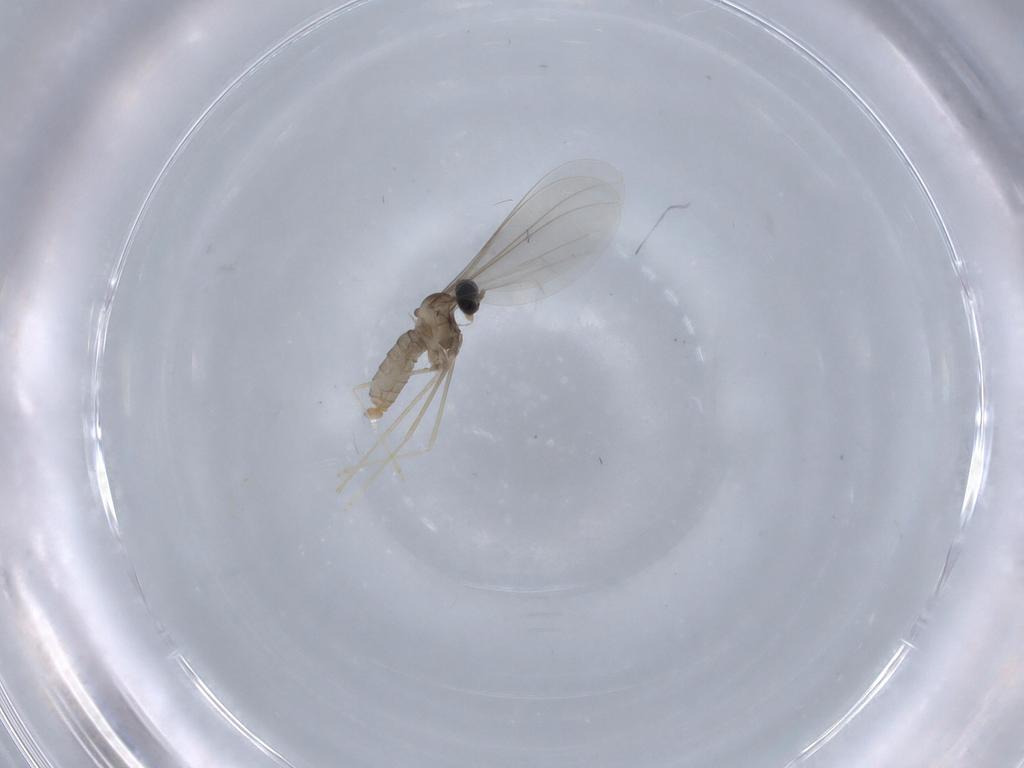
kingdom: Animalia
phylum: Arthropoda
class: Insecta
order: Diptera
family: Cecidomyiidae
